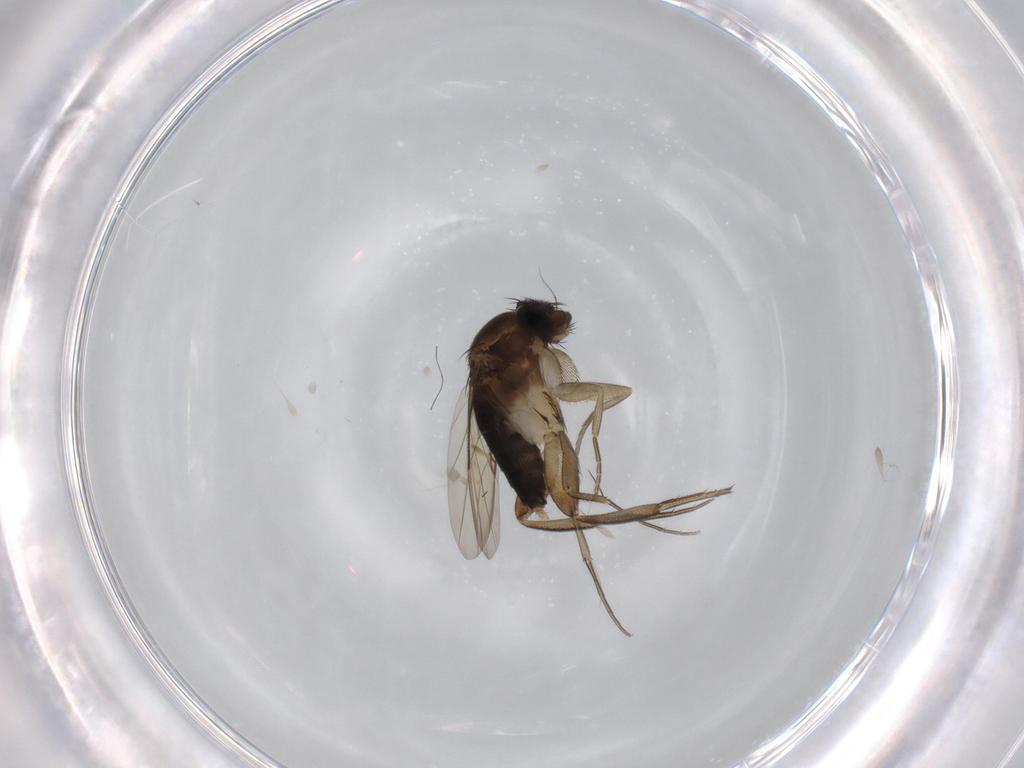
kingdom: Animalia
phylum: Arthropoda
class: Insecta
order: Diptera
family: Phoridae
